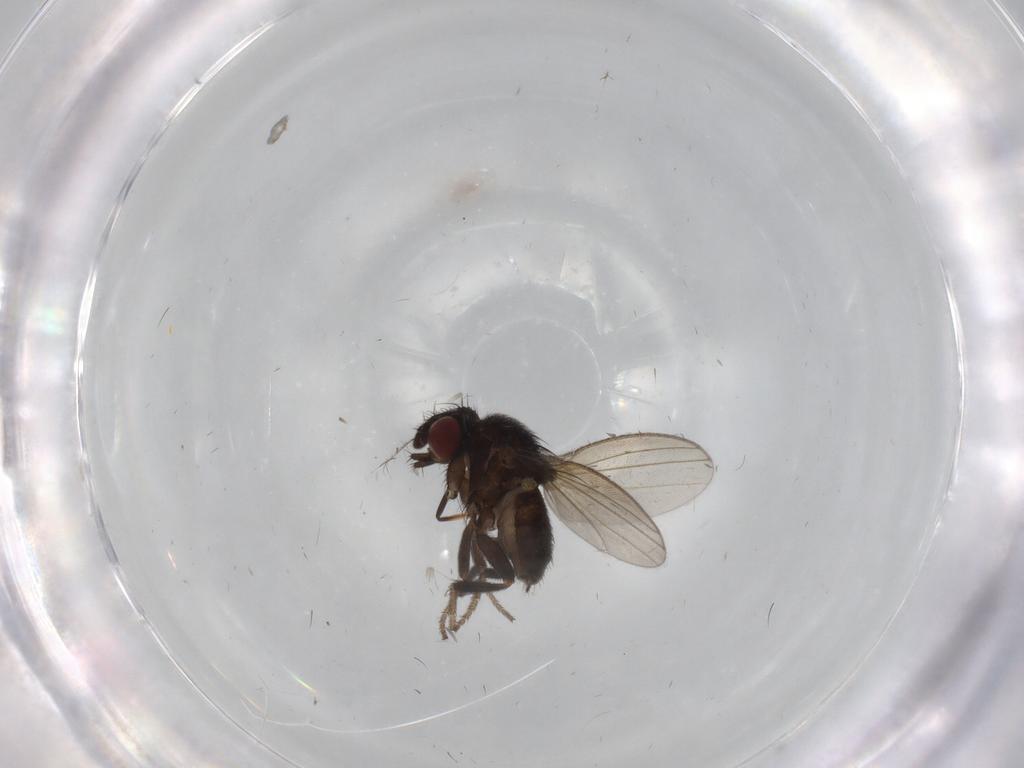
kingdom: Animalia
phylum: Arthropoda
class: Insecta
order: Diptera
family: Milichiidae
